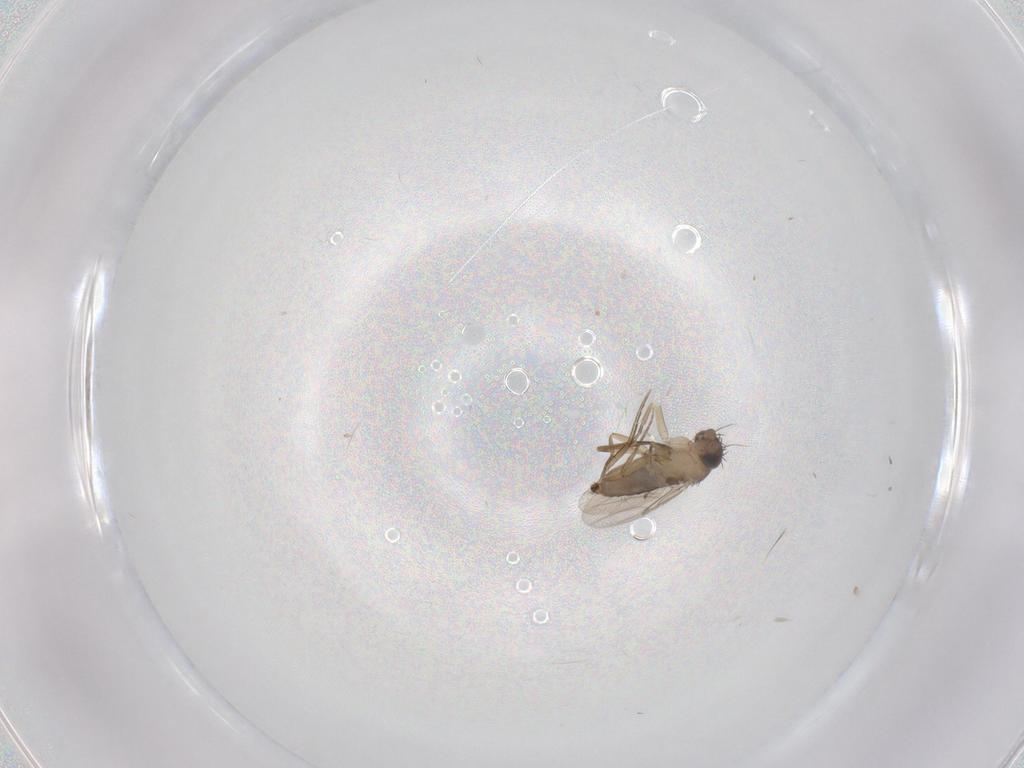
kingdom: Animalia
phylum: Arthropoda
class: Insecta
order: Diptera
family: Phoridae
